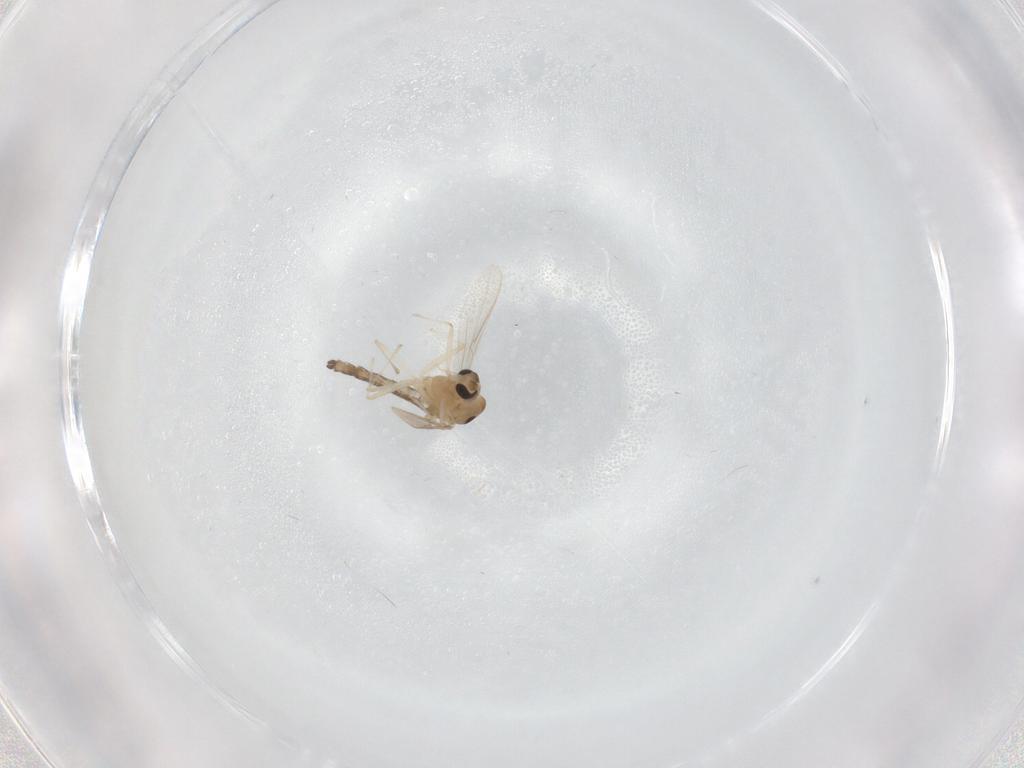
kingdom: Animalia
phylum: Arthropoda
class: Insecta
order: Diptera
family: Chironomidae
